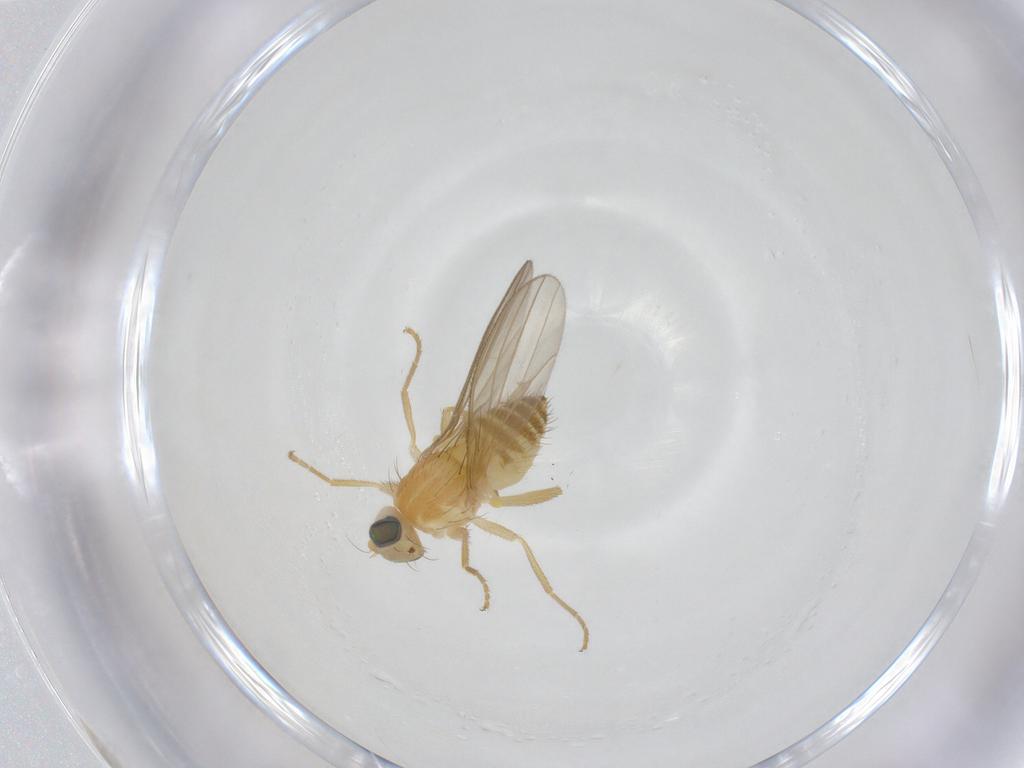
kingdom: Animalia
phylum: Arthropoda
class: Insecta
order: Diptera
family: Chyromyidae
